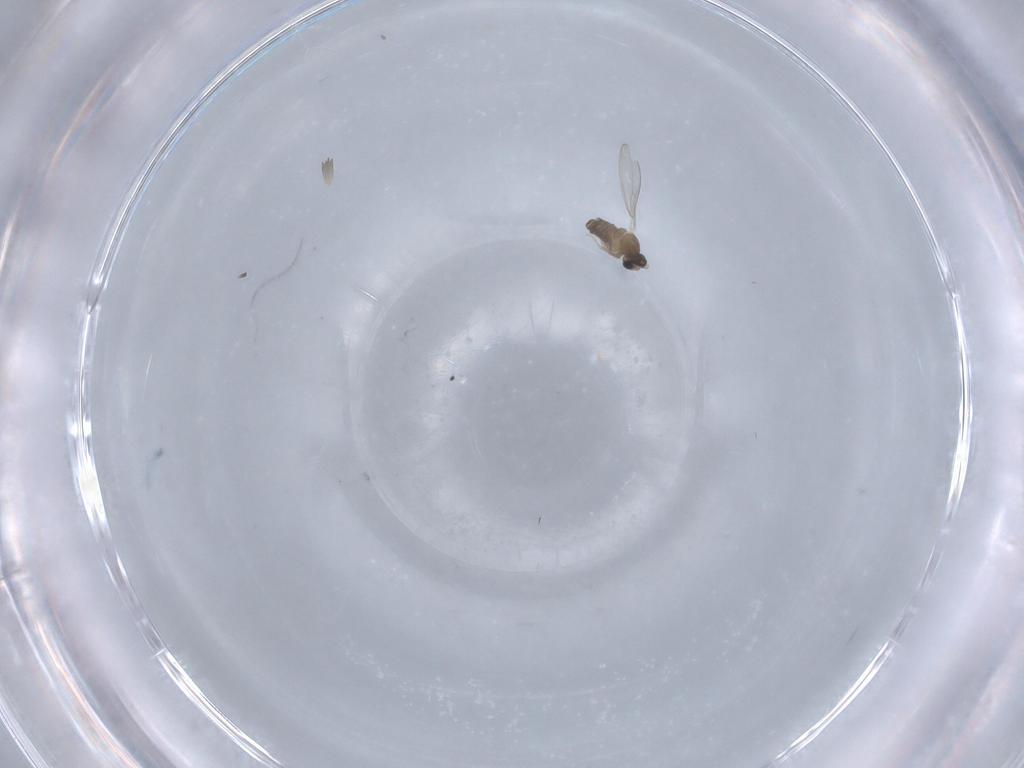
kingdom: Animalia
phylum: Arthropoda
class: Insecta
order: Diptera
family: Cecidomyiidae
